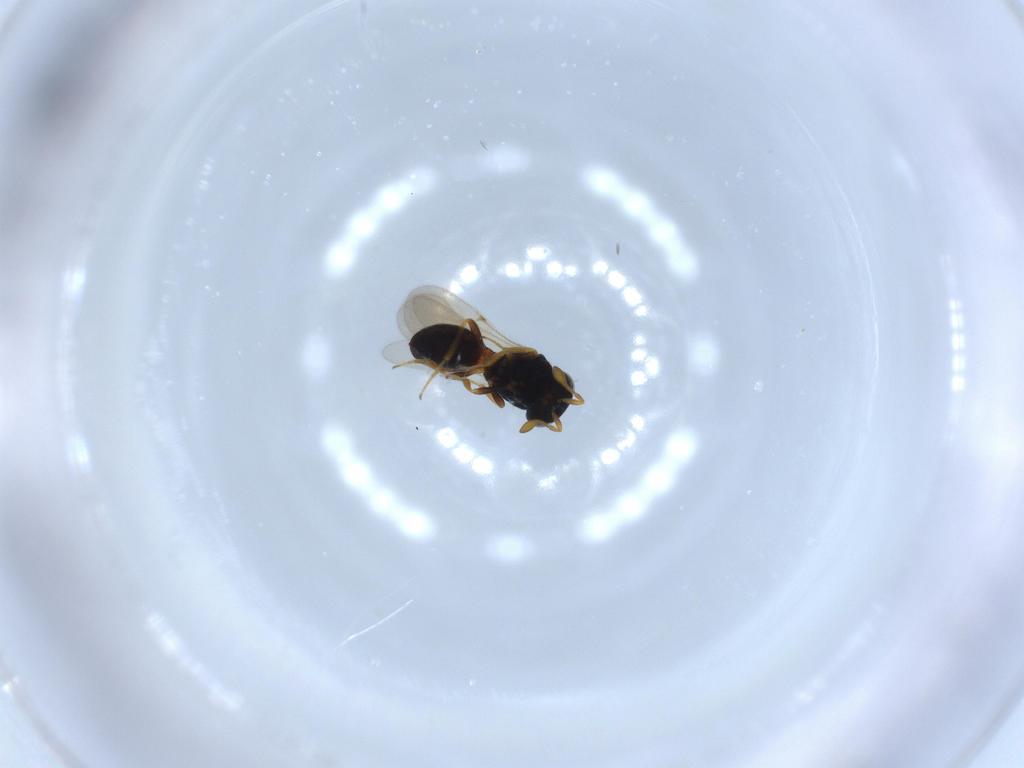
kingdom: Animalia
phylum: Arthropoda
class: Insecta
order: Hymenoptera
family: Scelionidae
